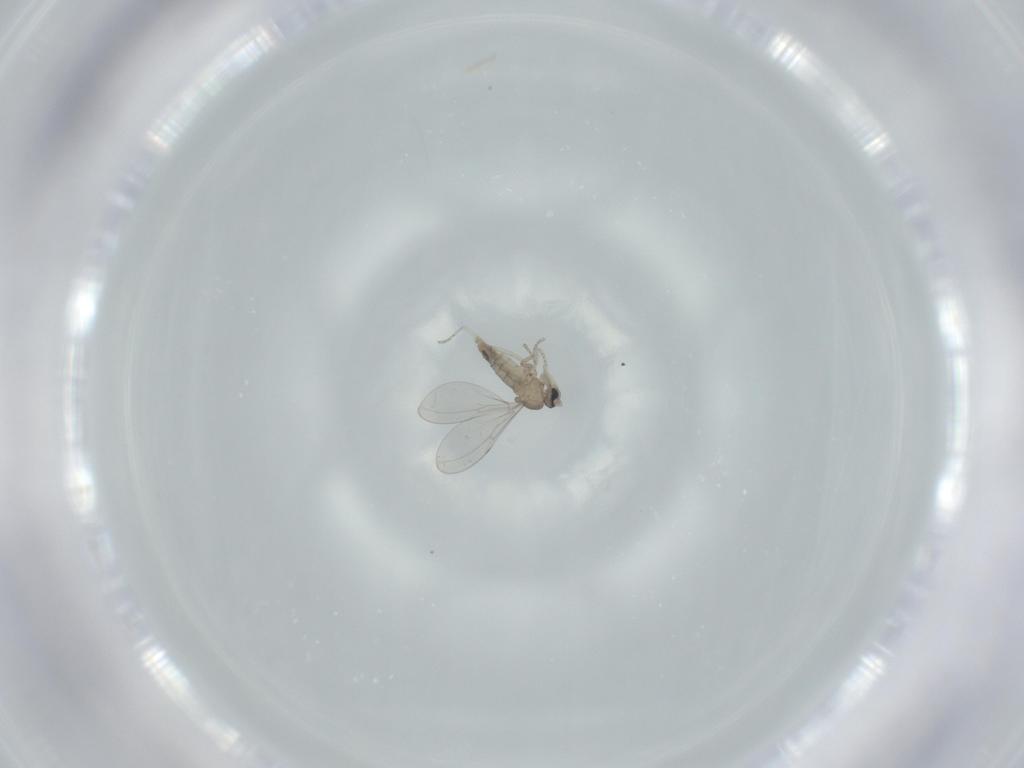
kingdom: Animalia
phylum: Arthropoda
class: Insecta
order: Diptera
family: Cecidomyiidae
